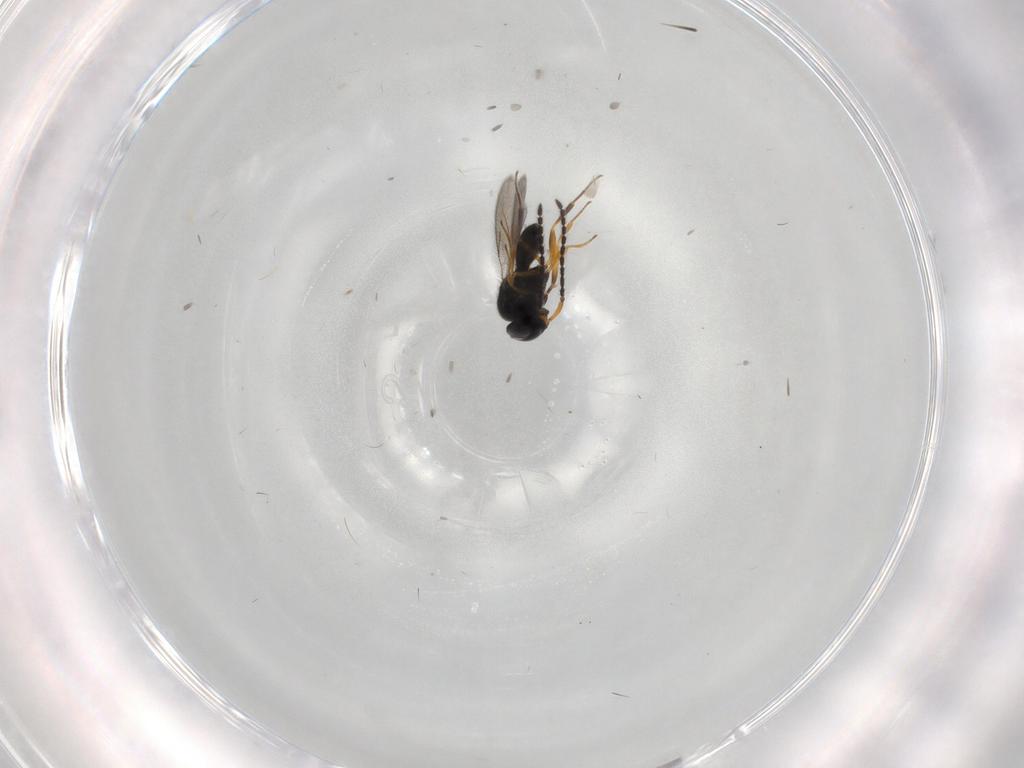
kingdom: Animalia
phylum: Arthropoda
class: Insecta
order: Hymenoptera
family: Scelionidae
